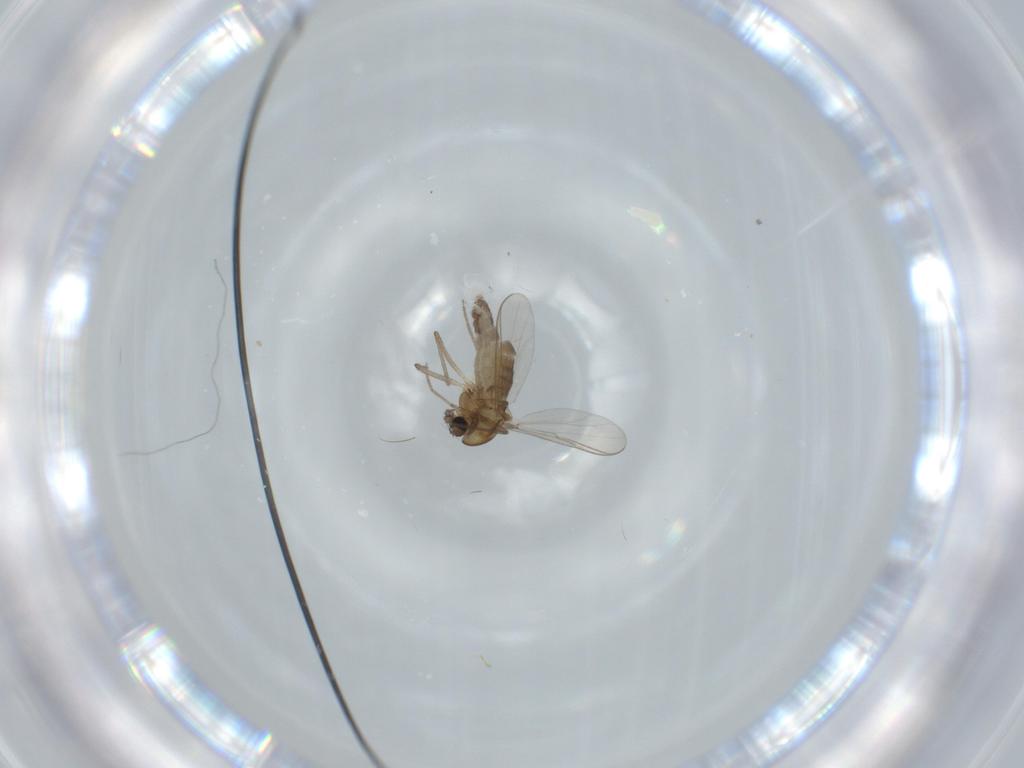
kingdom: Animalia
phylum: Arthropoda
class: Insecta
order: Diptera
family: Chironomidae
